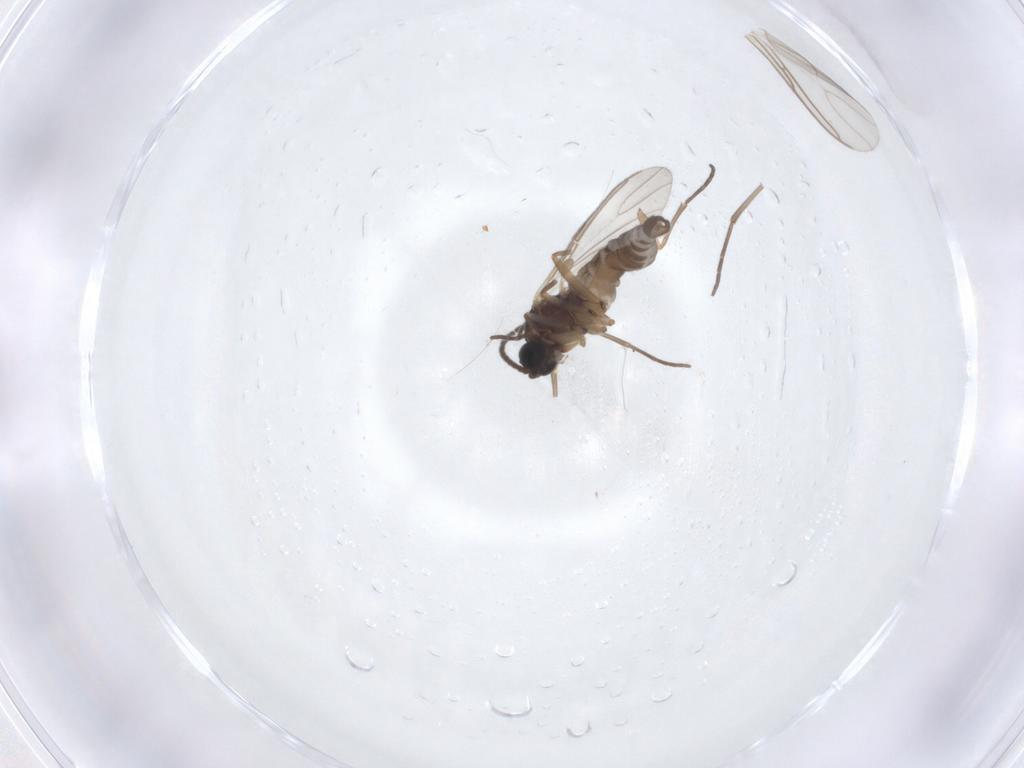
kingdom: Animalia
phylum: Arthropoda
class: Insecta
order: Diptera
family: Sciaridae
